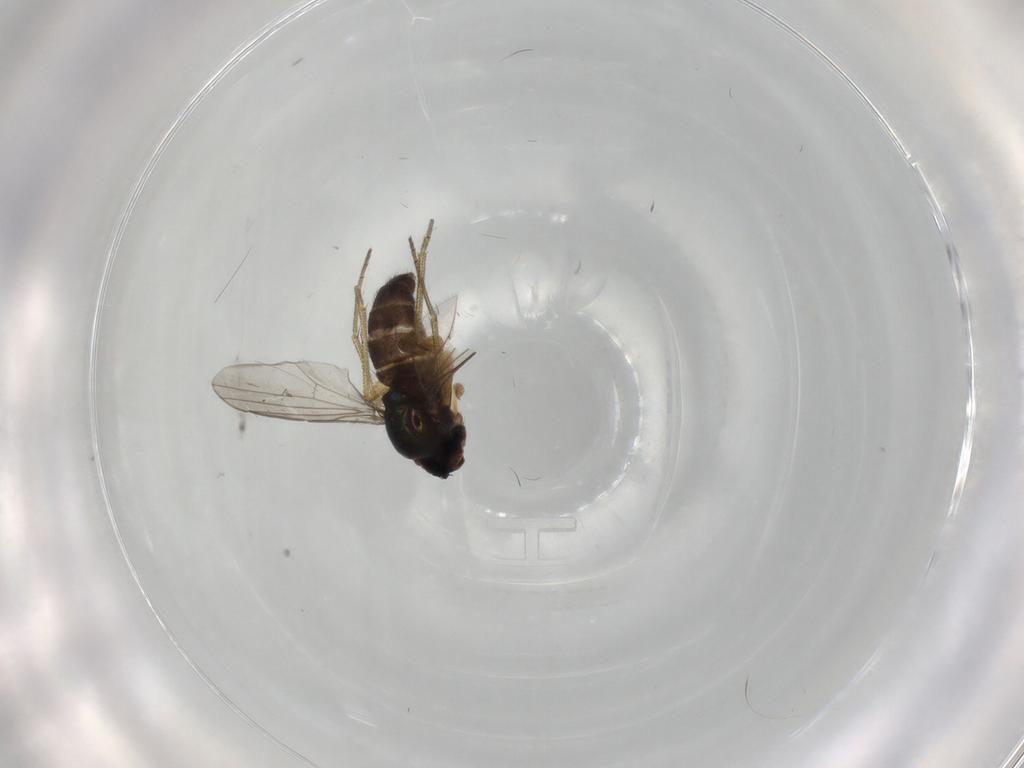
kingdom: Animalia
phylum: Arthropoda
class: Insecta
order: Diptera
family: Dolichopodidae
